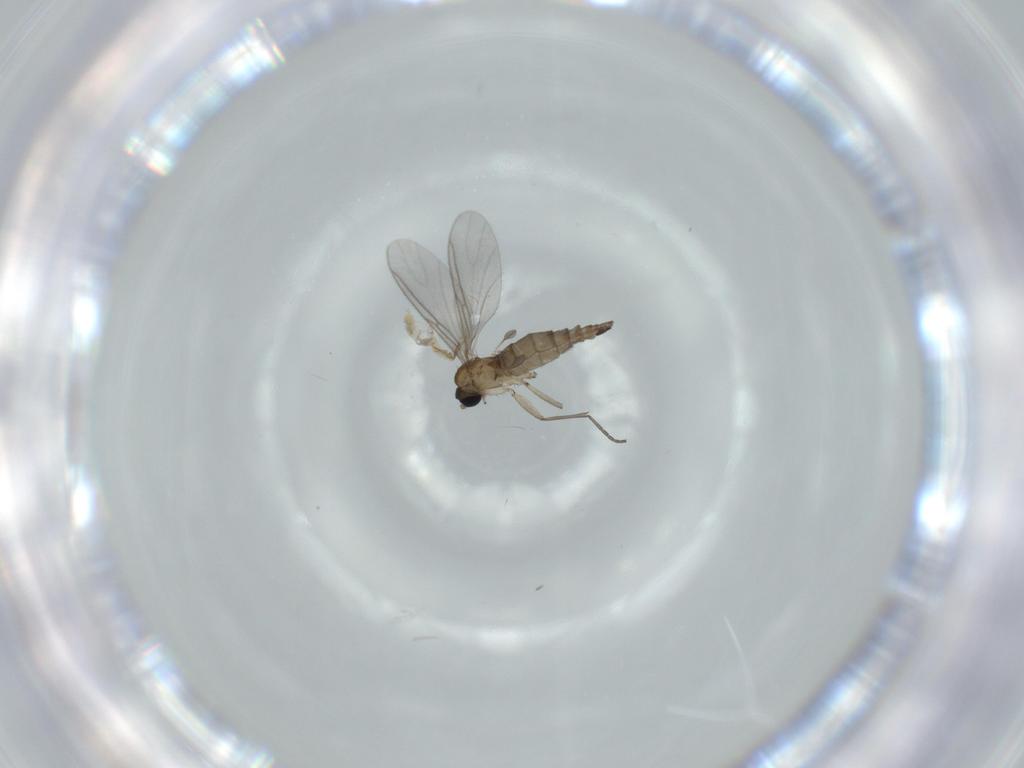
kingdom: Animalia
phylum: Arthropoda
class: Insecta
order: Diptera
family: Sciaridae
